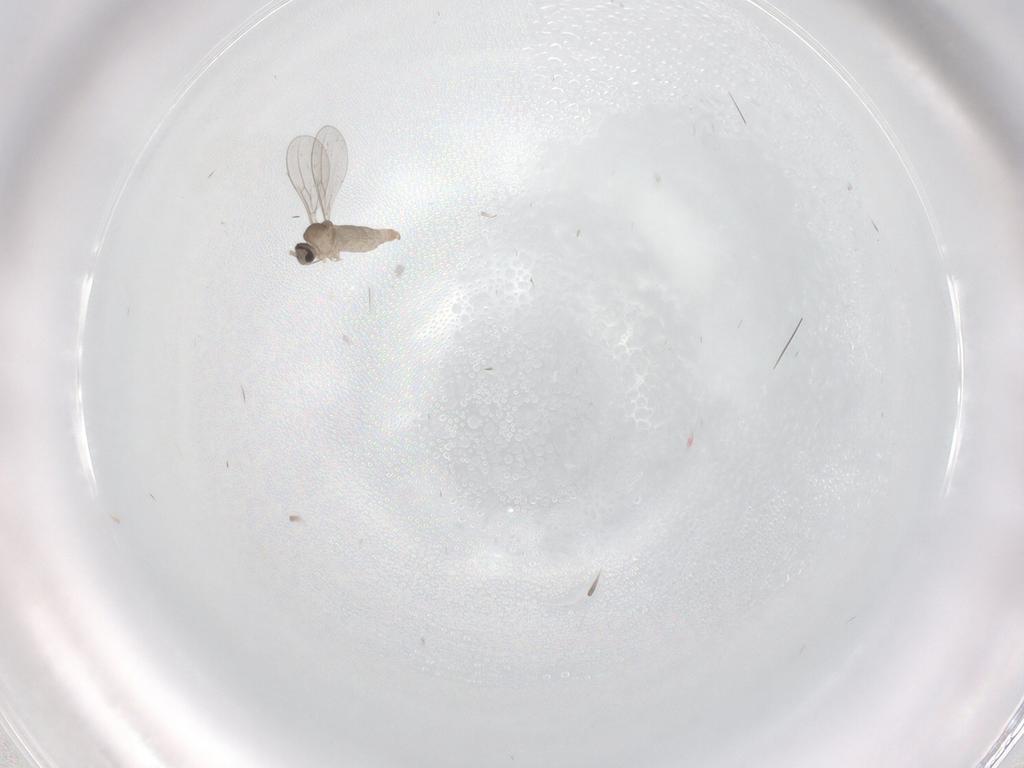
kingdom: Animalia
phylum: Arthropoda
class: Insecta
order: Diptera
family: Cecidomyiidae
